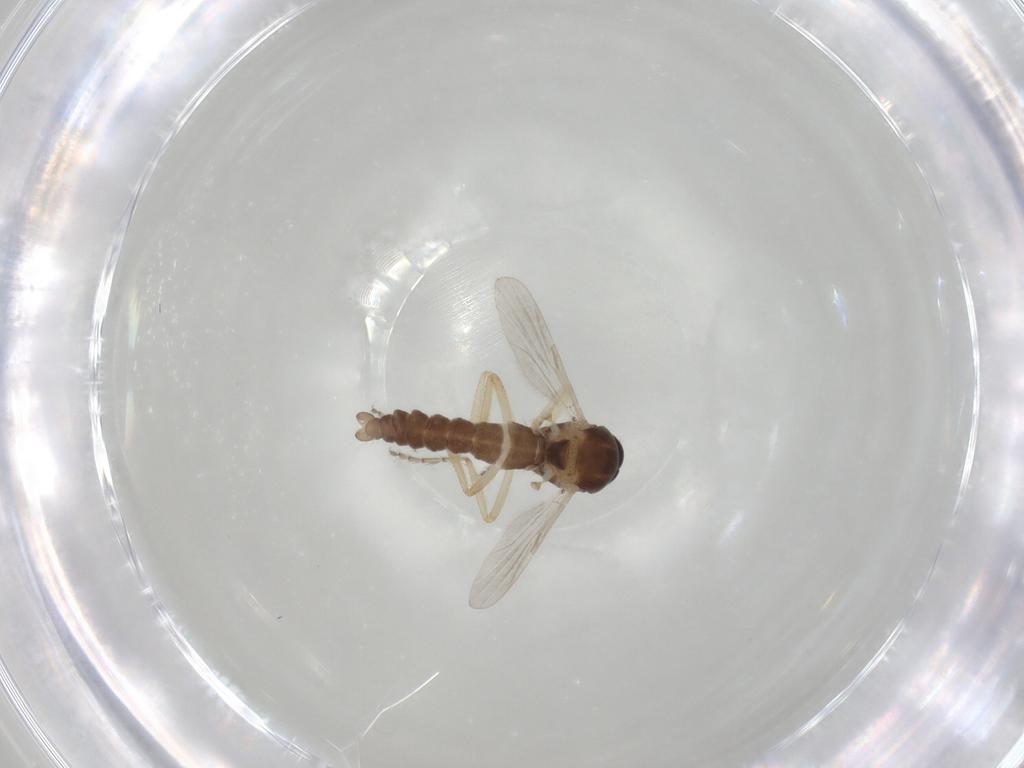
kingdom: Animalia
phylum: Arthropoda
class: Insecta
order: Diptera
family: Ceratopogonidae
